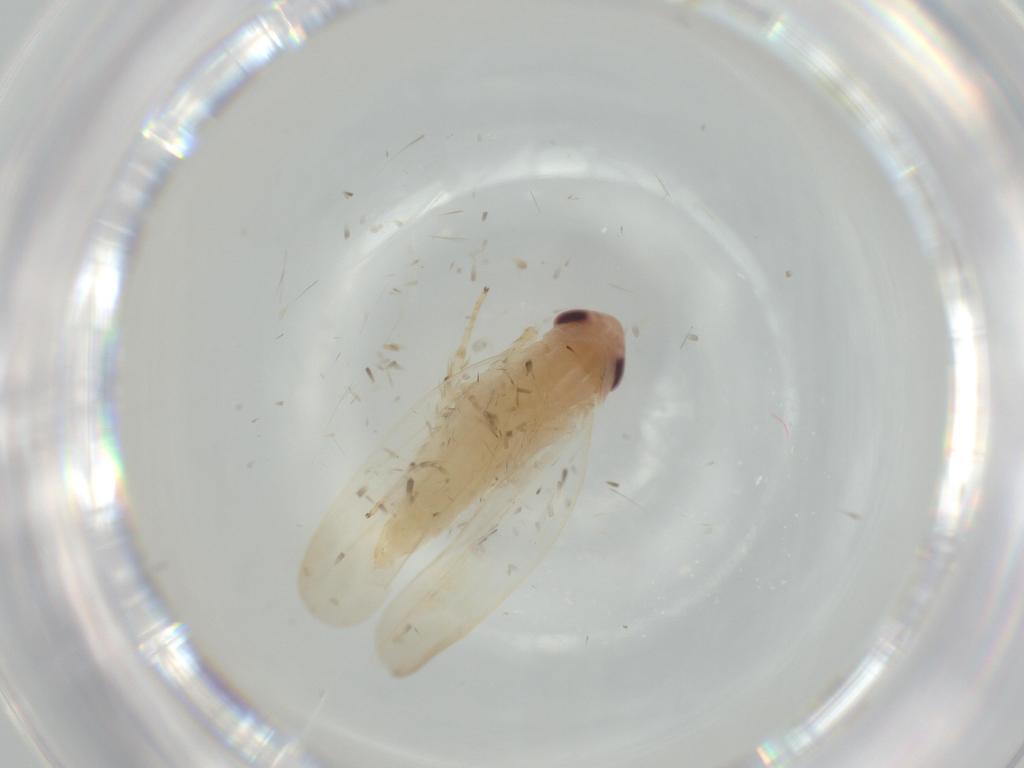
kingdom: Animalia
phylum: Arthropoda
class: Insecta
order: Hemiptera
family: Cicadellidae
